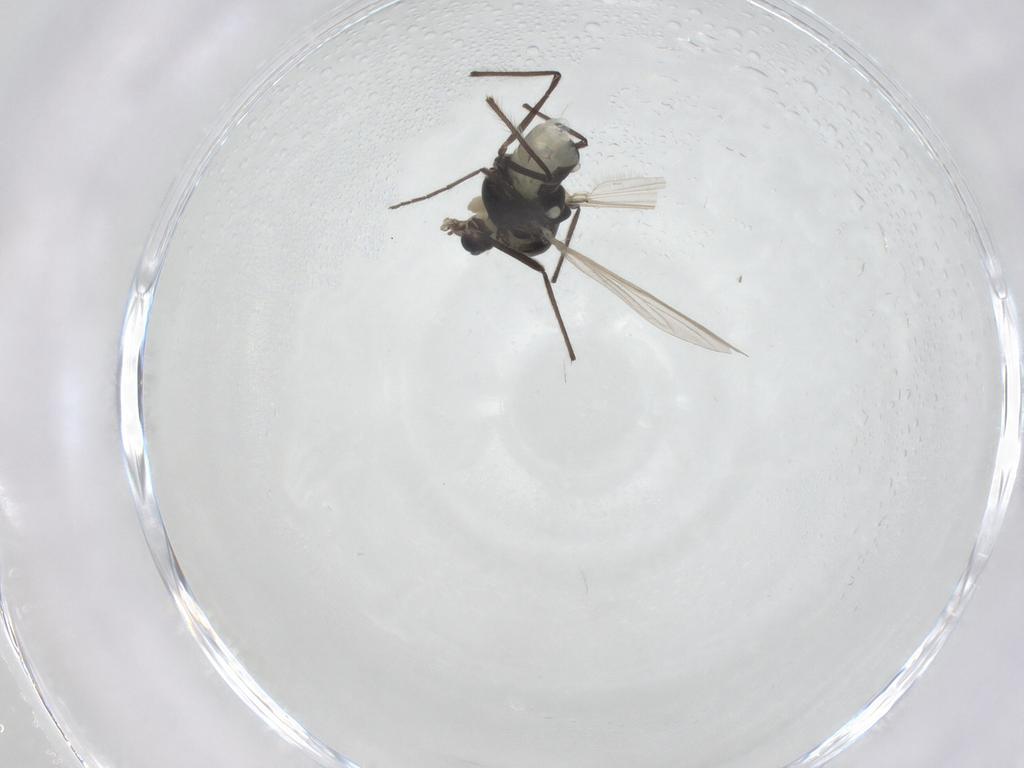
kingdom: Animalia
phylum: Arthropoda
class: Insecta
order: Diptera
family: Chironomidae
